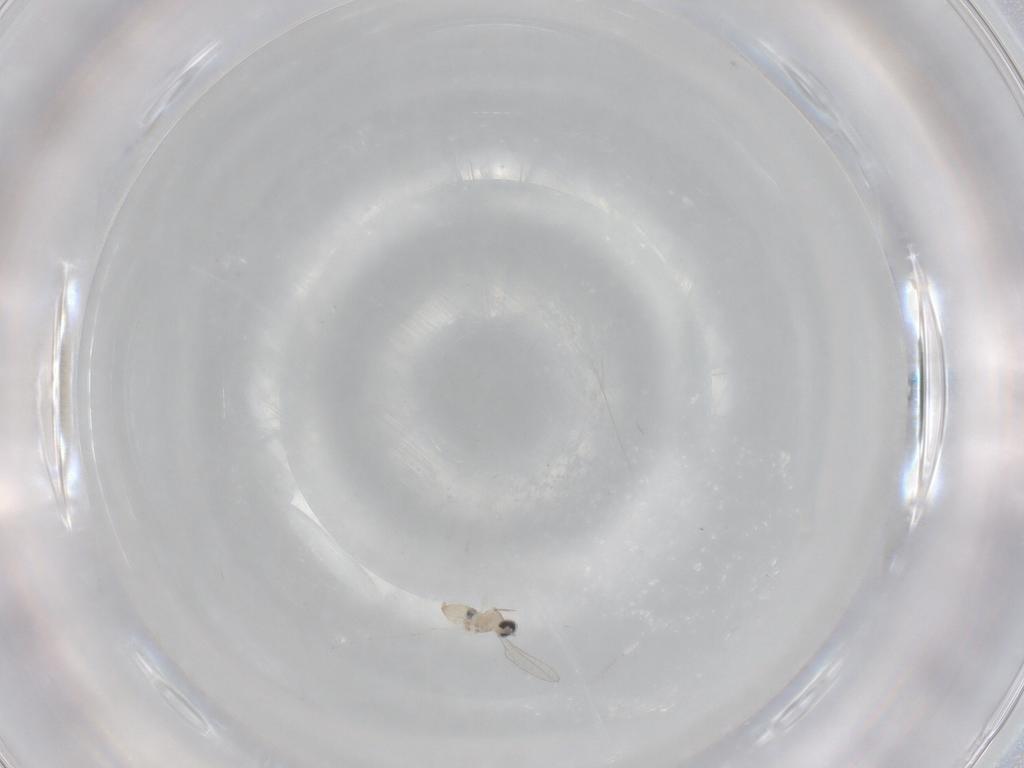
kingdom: Animalia
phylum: Arthropoda
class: Insecta
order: Diptera
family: Cecidomyiidae
